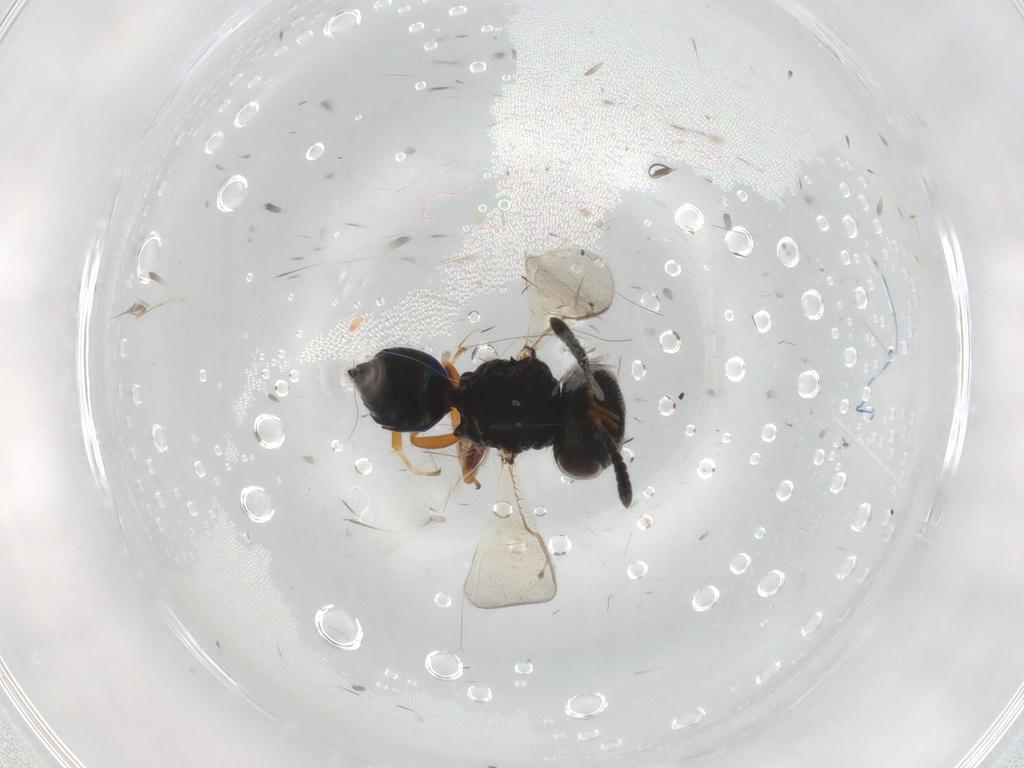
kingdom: Animalia
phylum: Arthropoda
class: Insecta
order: Hymenoptera
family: Pteromalidae
